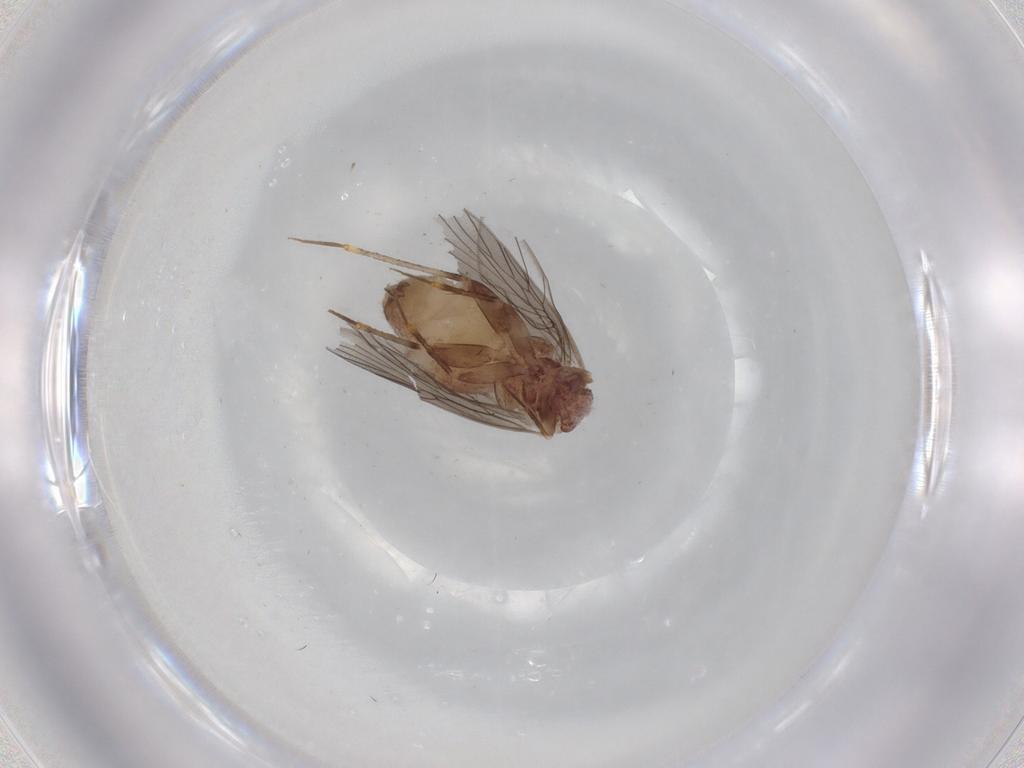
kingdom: Animalia
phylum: Arthropoda
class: Insecta
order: Psocodea
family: Lepidopsocidae
